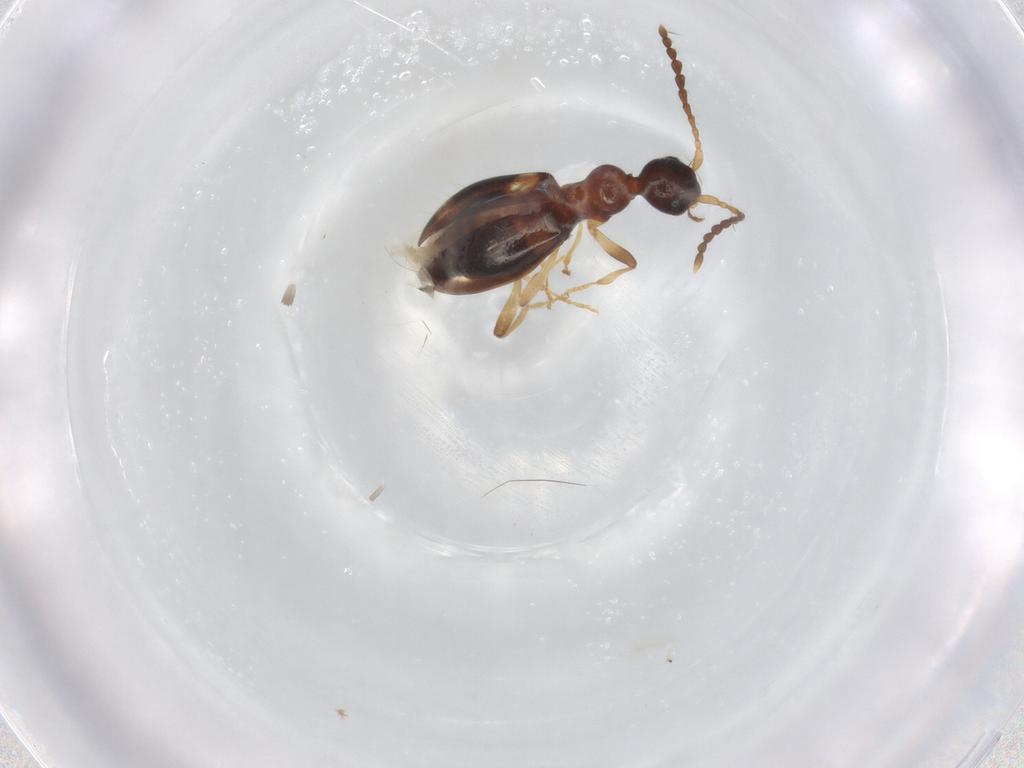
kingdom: Animalia
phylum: Arthropoda
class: Insecta
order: Coleoptera
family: Anthicidae
